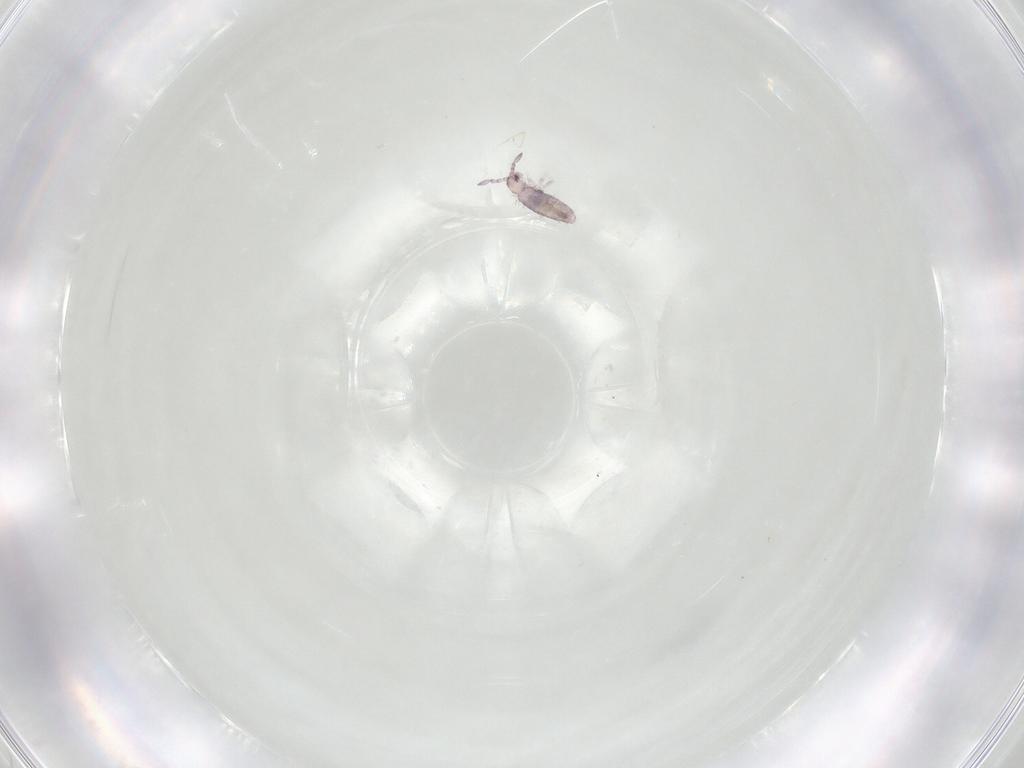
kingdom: Animalia
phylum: Arthropoda
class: Collembola
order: Entomobryomorpha
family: Entomobryidae
